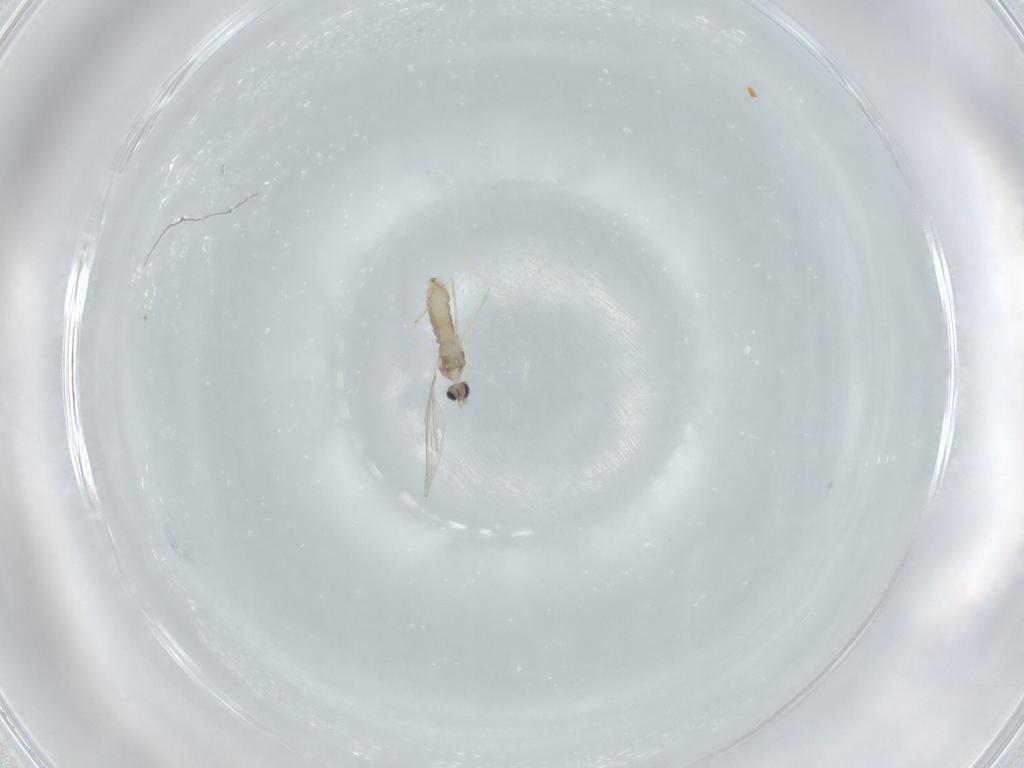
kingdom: Animalia
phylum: Arthropoda
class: Insecta
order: Diptera
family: Cecidomyiidae
